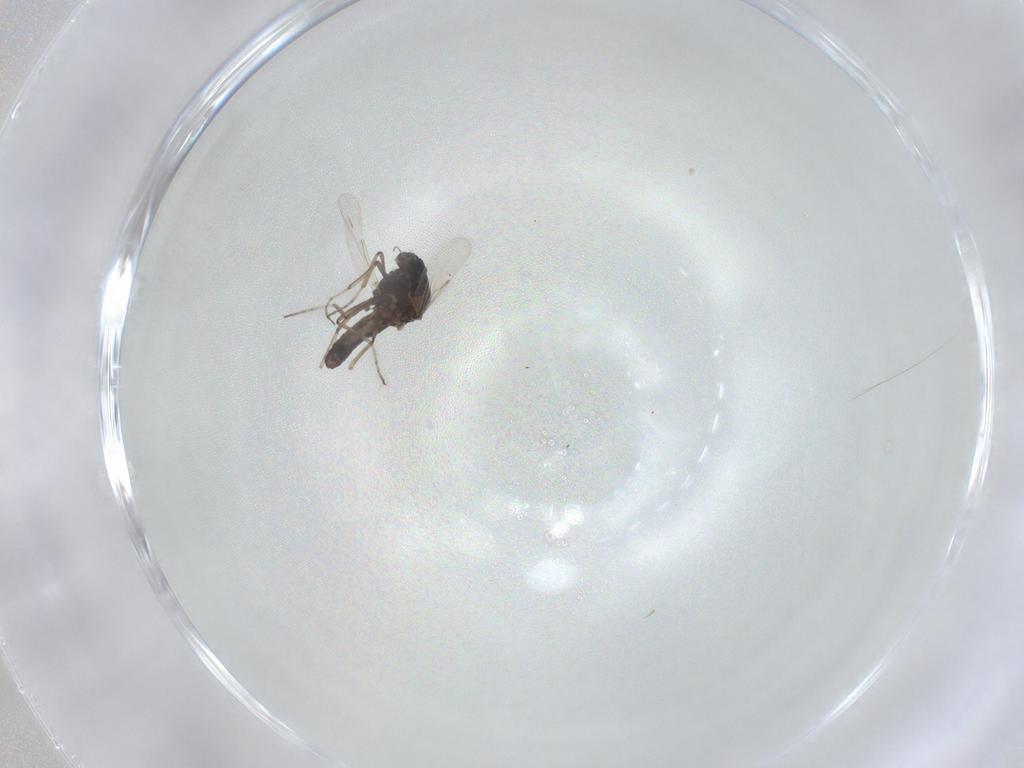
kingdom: Animalia
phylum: Arthropoda
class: Insecta
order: Diptera
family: Ceratopogonidae
